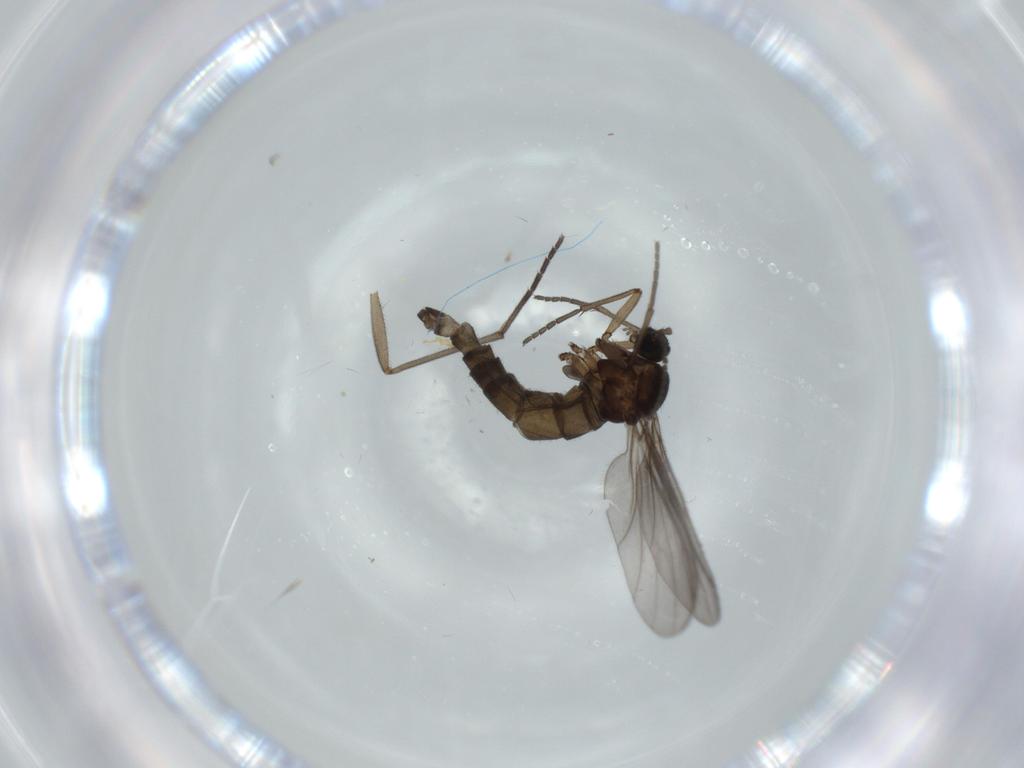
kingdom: Animalia
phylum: Arthropoda
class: Insecta
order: Diptera
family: Sciaridae
